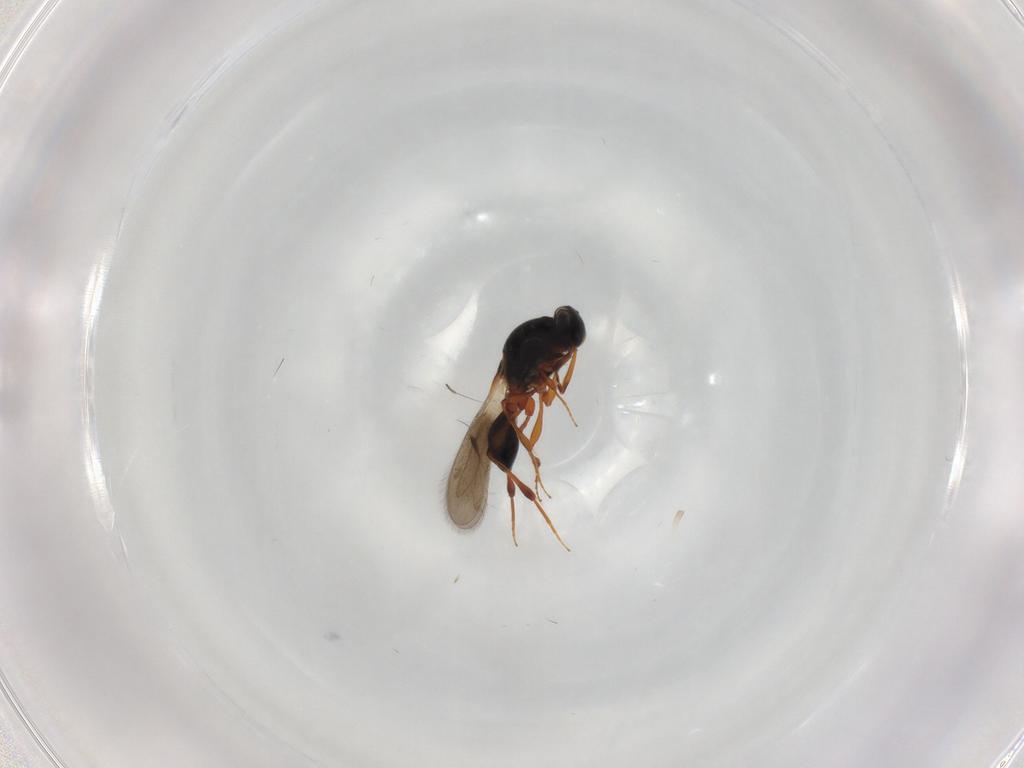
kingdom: Animalia
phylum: Arthropoda
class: Insecta
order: Hymenoptera
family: Platygastridae
